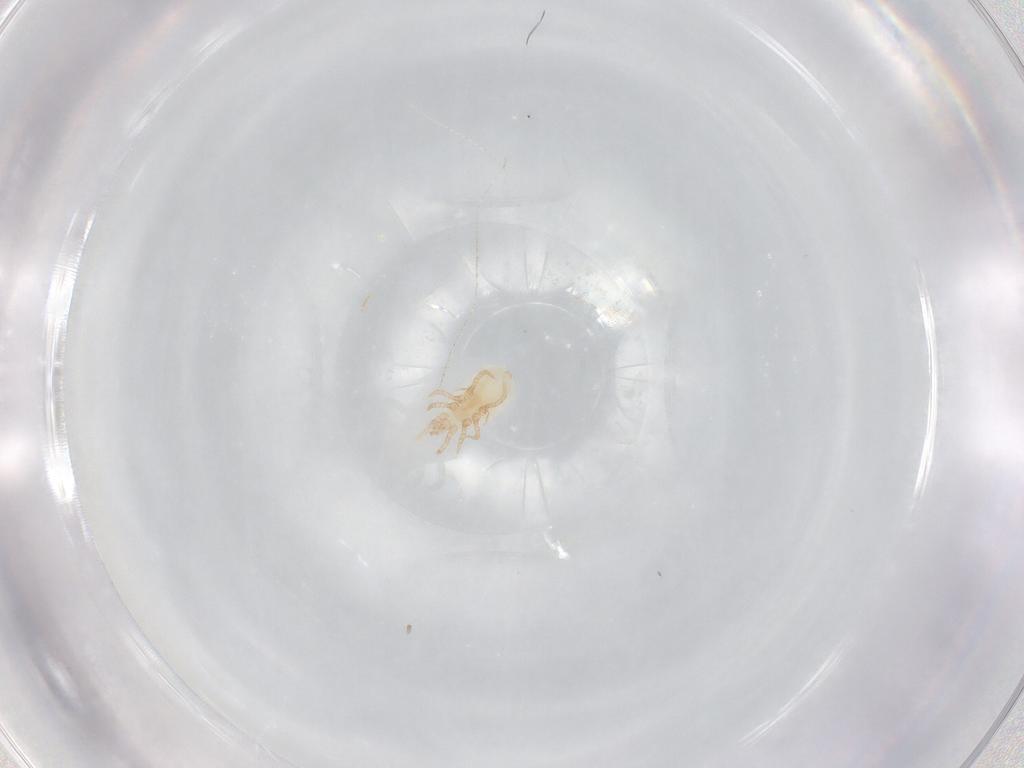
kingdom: Animalia
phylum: Arthropoda
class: Arachnida
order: Mesostigmata
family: Laelapidae
